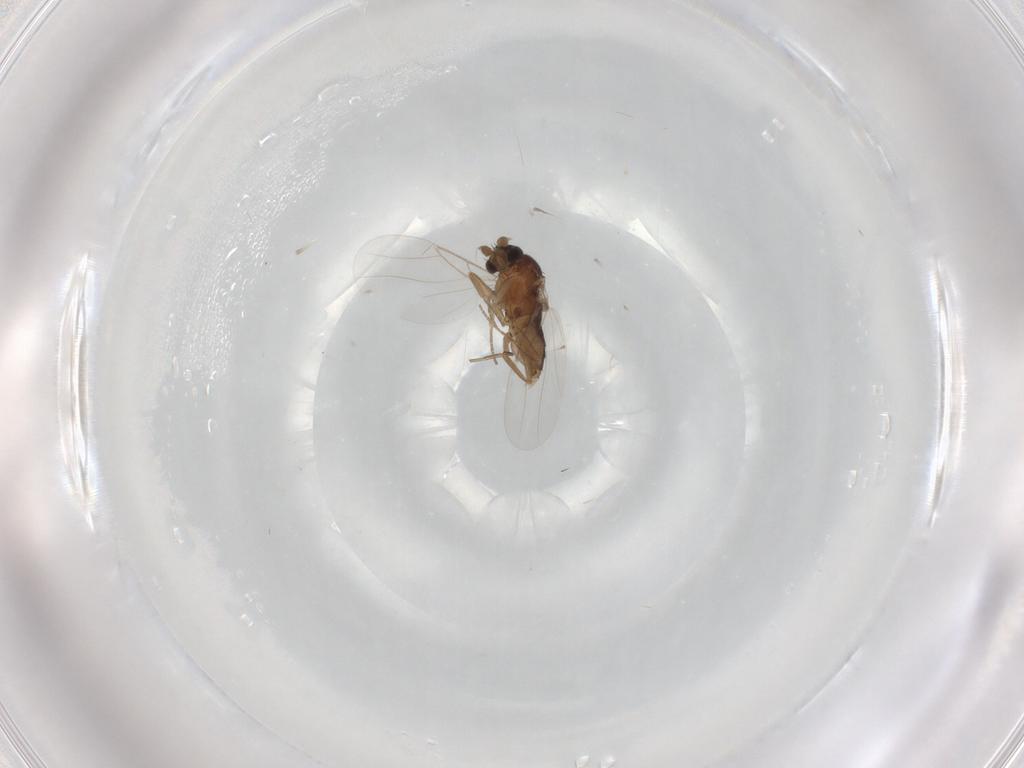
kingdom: Animalia
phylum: Arthropoda
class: Insecta
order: Diptera
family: Phoridae
